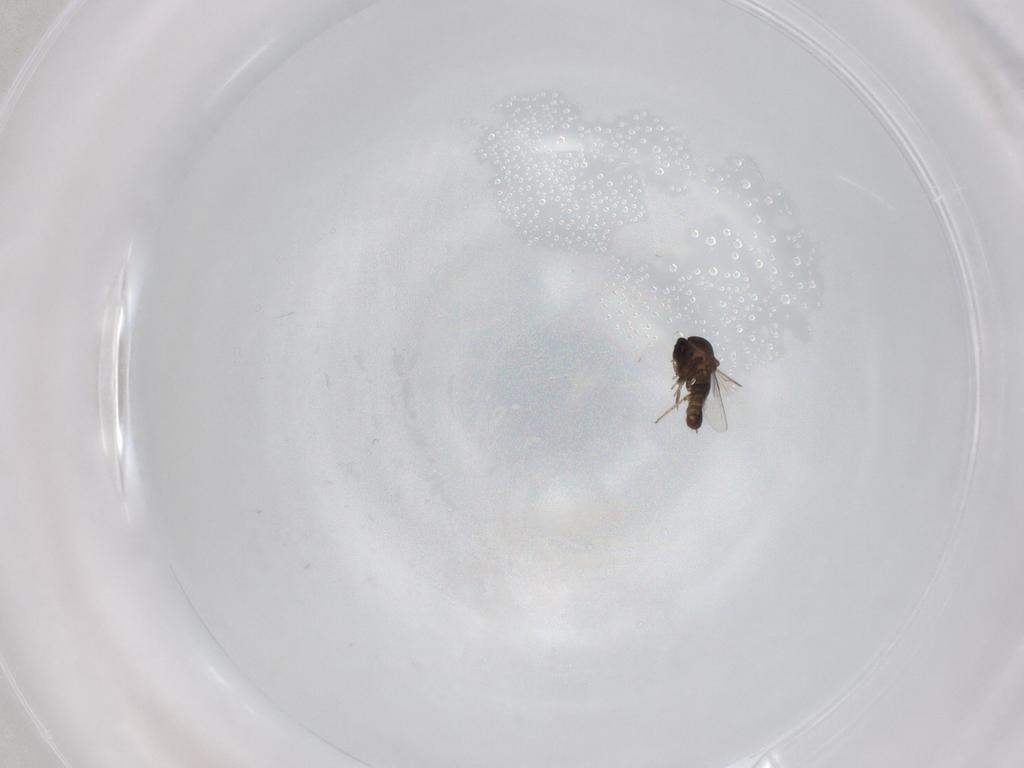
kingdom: Animalia
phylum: Arthropoda
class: Insecta
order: Diptera
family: Ceratopogonidae
